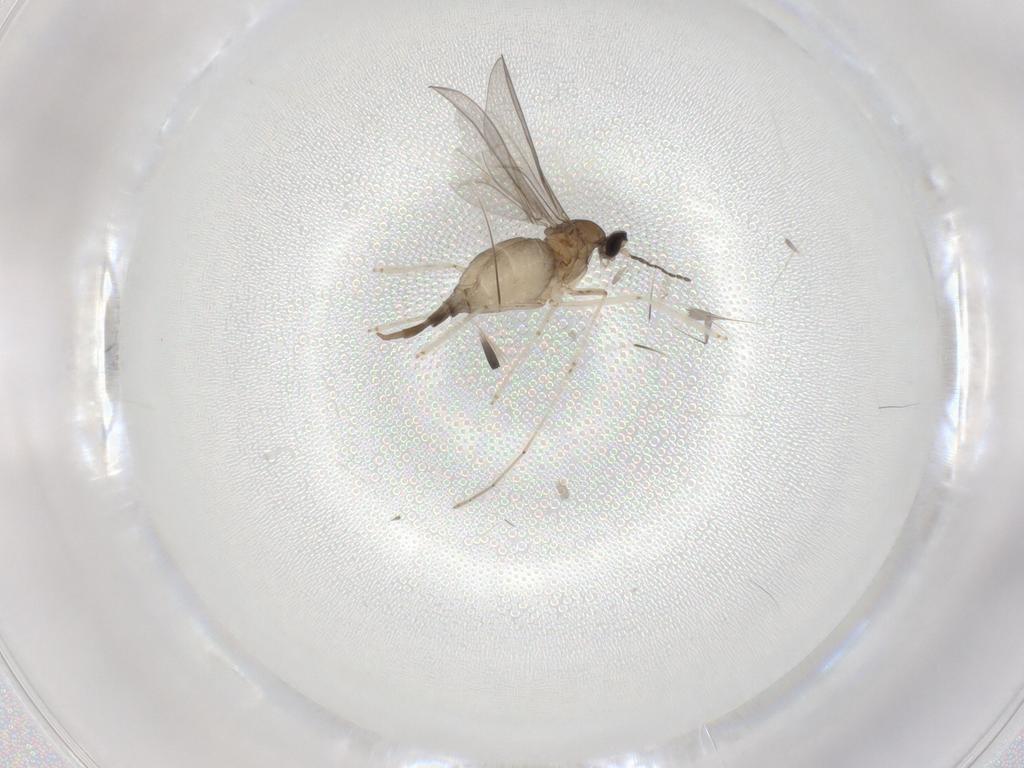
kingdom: Animalia
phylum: Arthropoda
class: Insecta
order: Diptera
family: Cecidomyiidae
